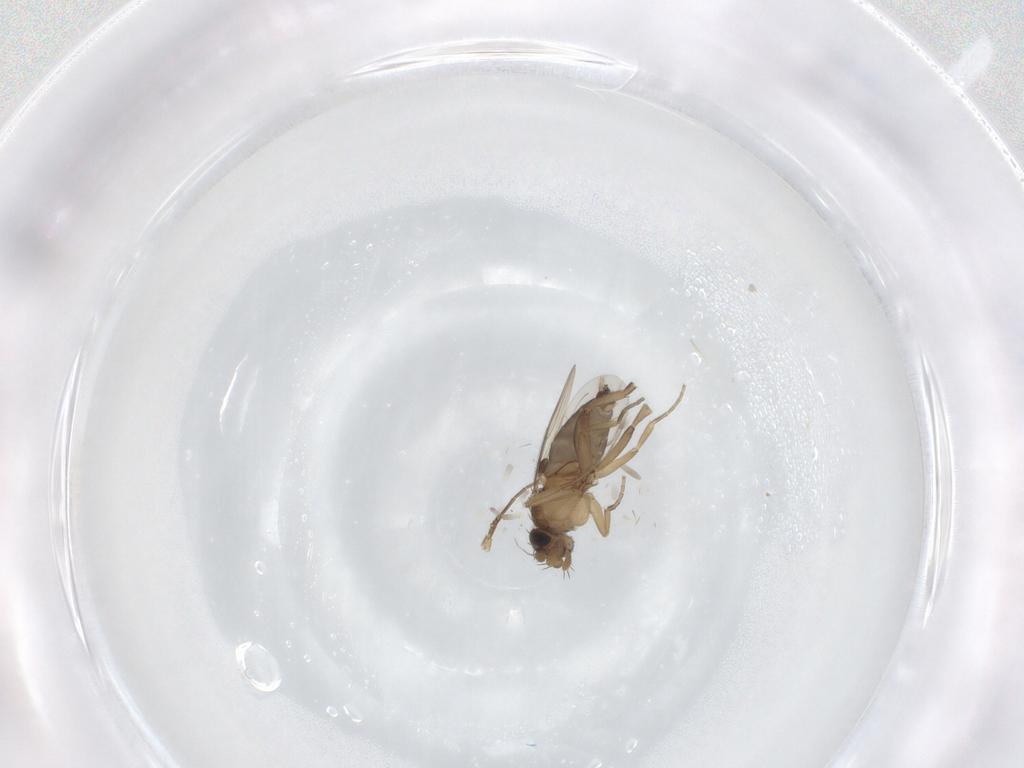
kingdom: Animalia
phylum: Arthropoda
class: Insecta
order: Diptera
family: Phoridae
